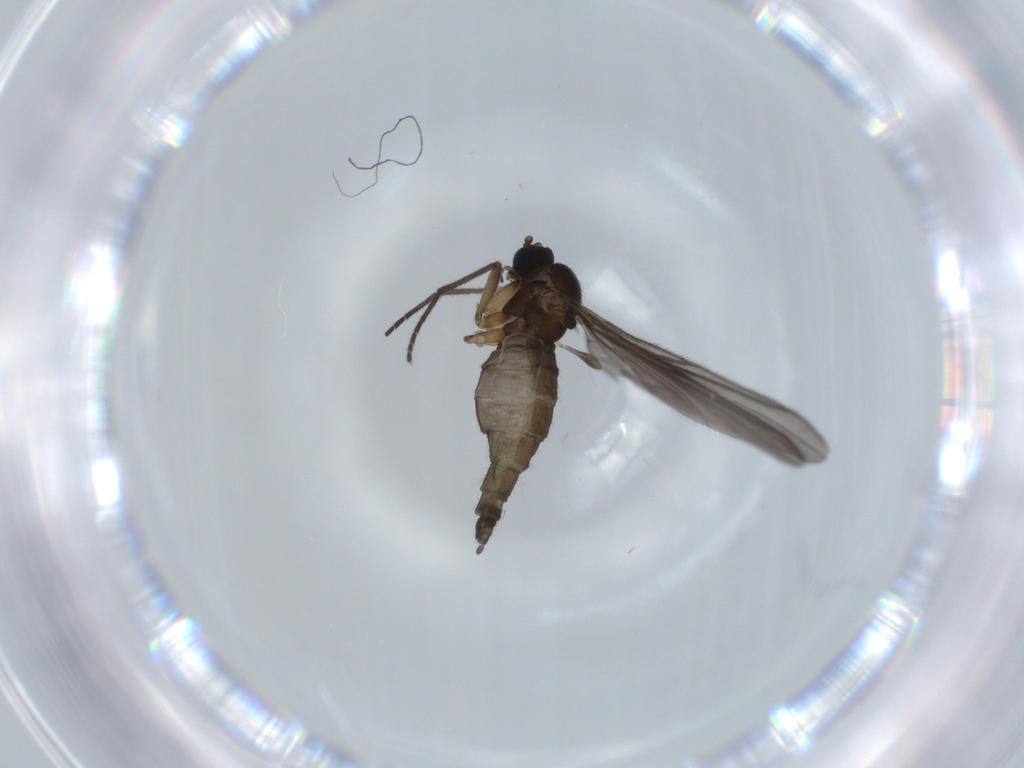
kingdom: Animalia
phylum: Arthropoda
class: Insecta
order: Diptera
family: Sciaridae
